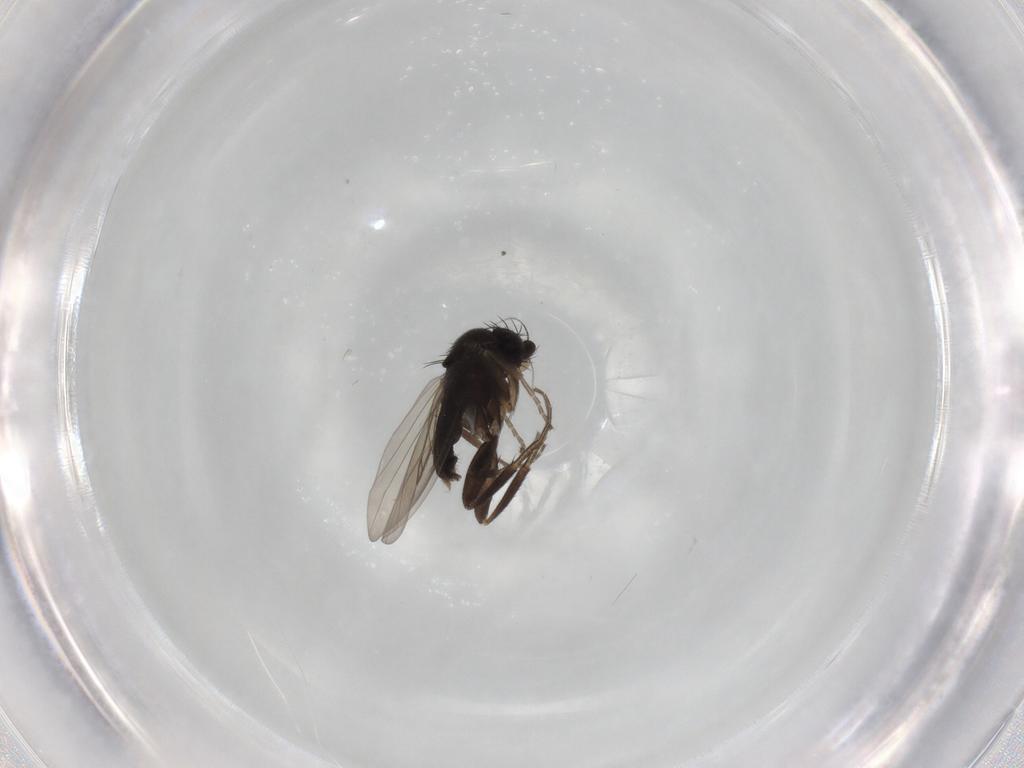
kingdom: Animalia
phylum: Arthropoda
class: Insecta
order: Diptera
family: Phoridae
